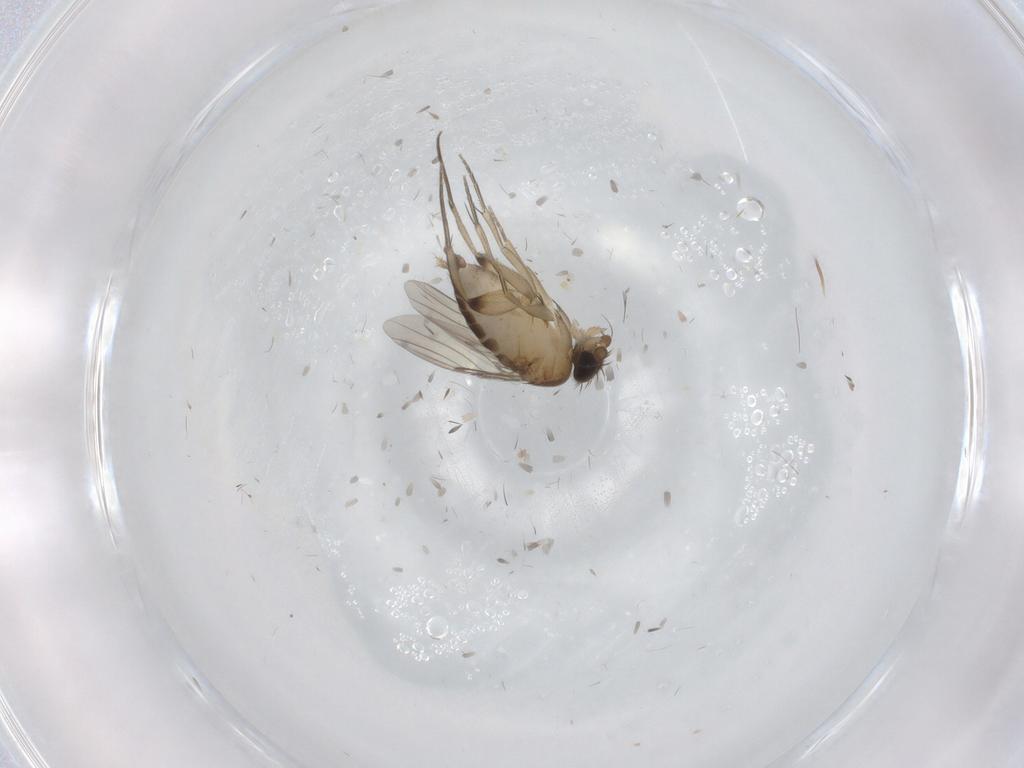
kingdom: Animalia
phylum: Arthropoda
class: Insecta
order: Diptera
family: Phoridae
